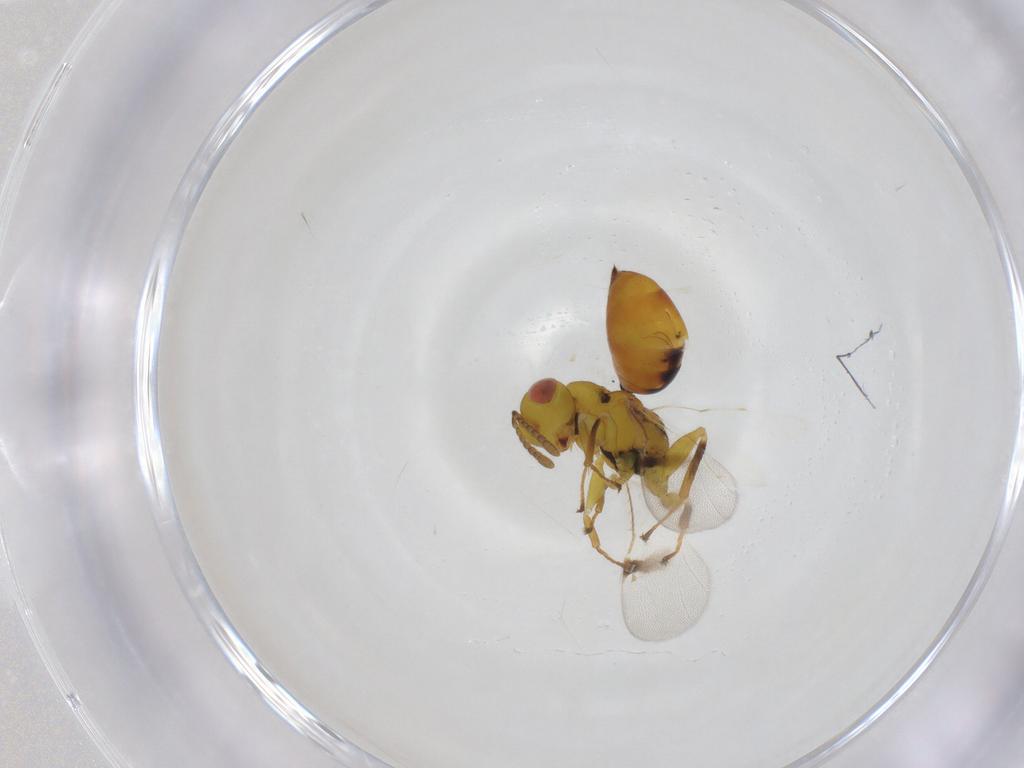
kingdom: Animalia
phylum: Arthropoda
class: Insecta
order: Hymenoptera
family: Eurytomidae
